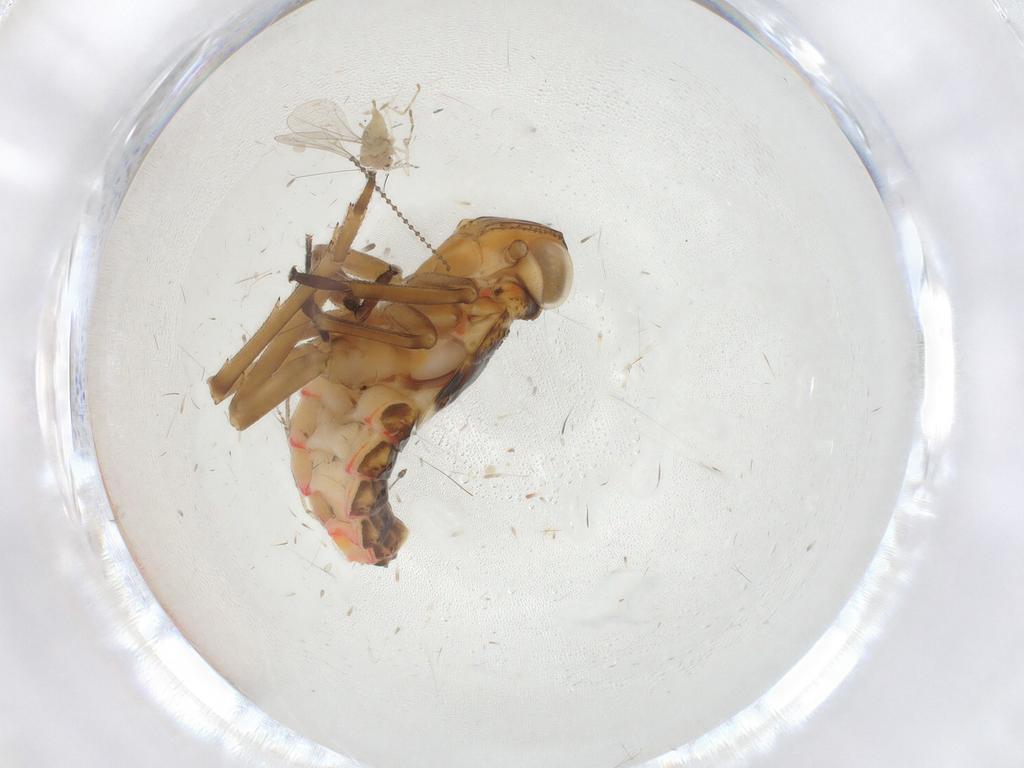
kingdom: Animalia
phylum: Arthropoda
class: Insecta
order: Diptera
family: Cecidomyiidae
